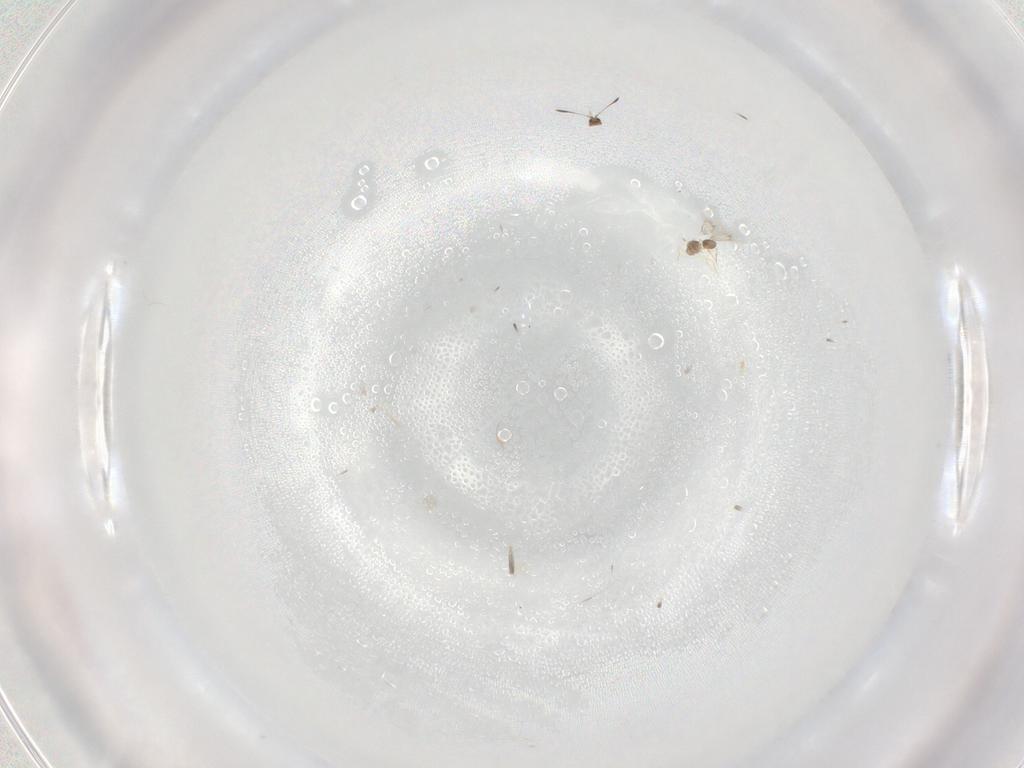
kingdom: Animalia
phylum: Arthropoda
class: Insecta
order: Hymenoptera
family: Mymarommatidae
